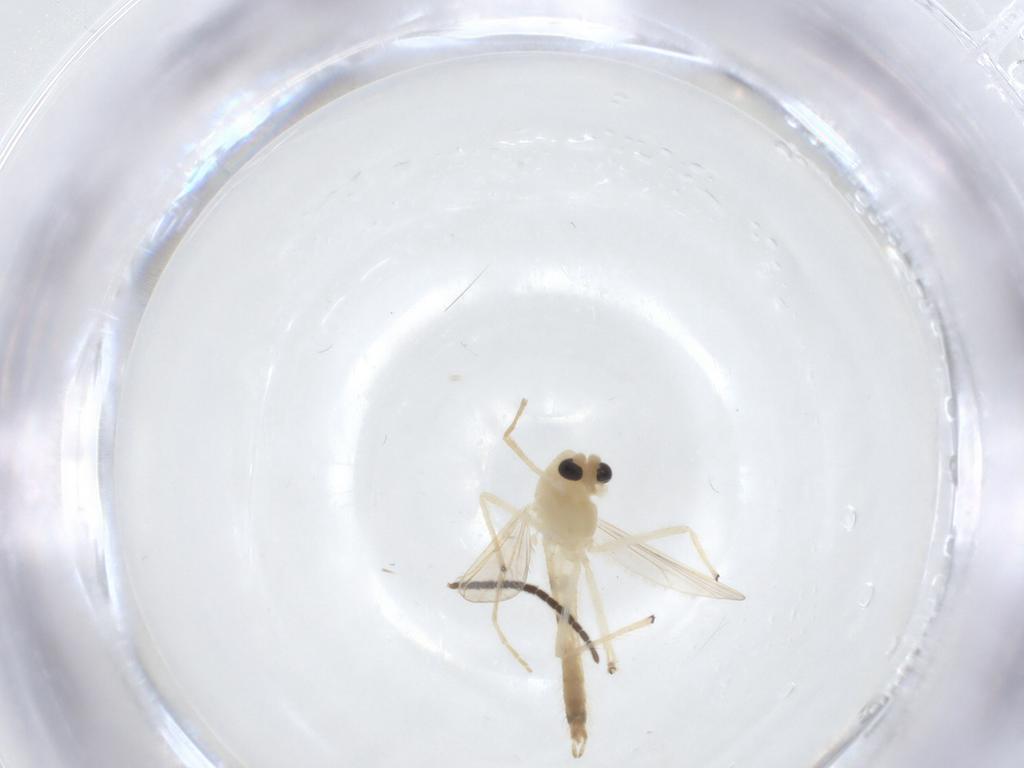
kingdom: Animalia
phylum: Arthropoda
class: Insecta
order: Diptera
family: Chironomidae
